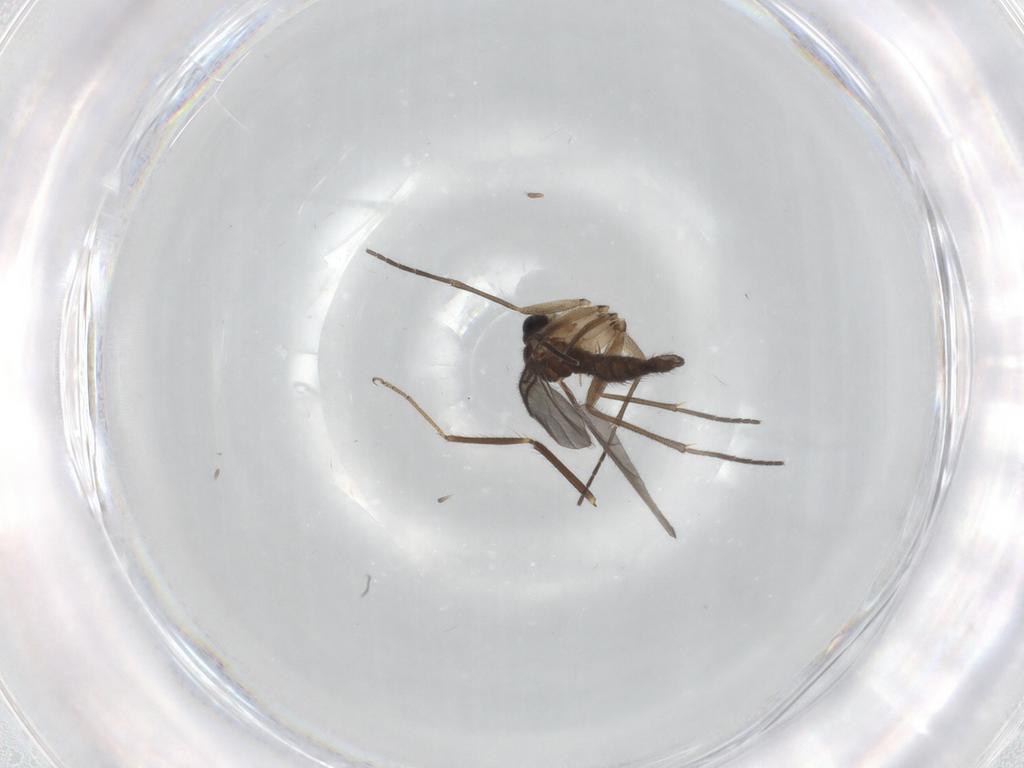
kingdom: Animalia
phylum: Arthropoda
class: Insecta
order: Diptera
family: Sciaridae
